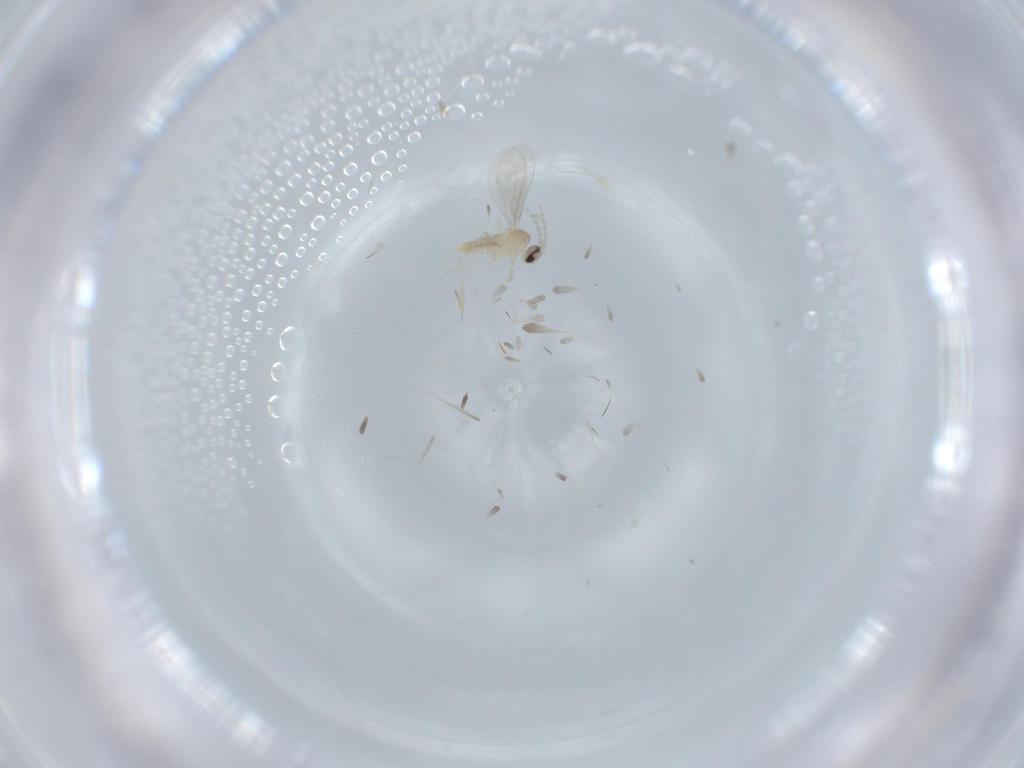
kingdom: Animalia
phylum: Arthropoda
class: Insecta
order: Diptera
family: Cecidomyiidae
